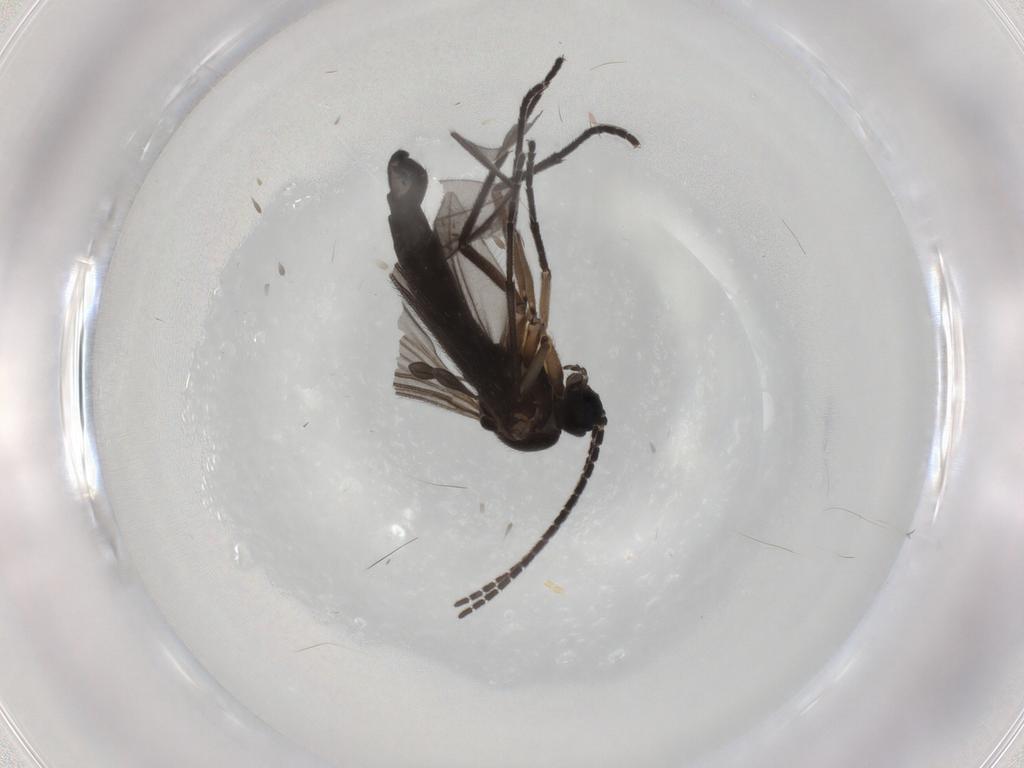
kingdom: Animalia
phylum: Arthropoda
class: Insecta
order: Diptera
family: Sciaridae
